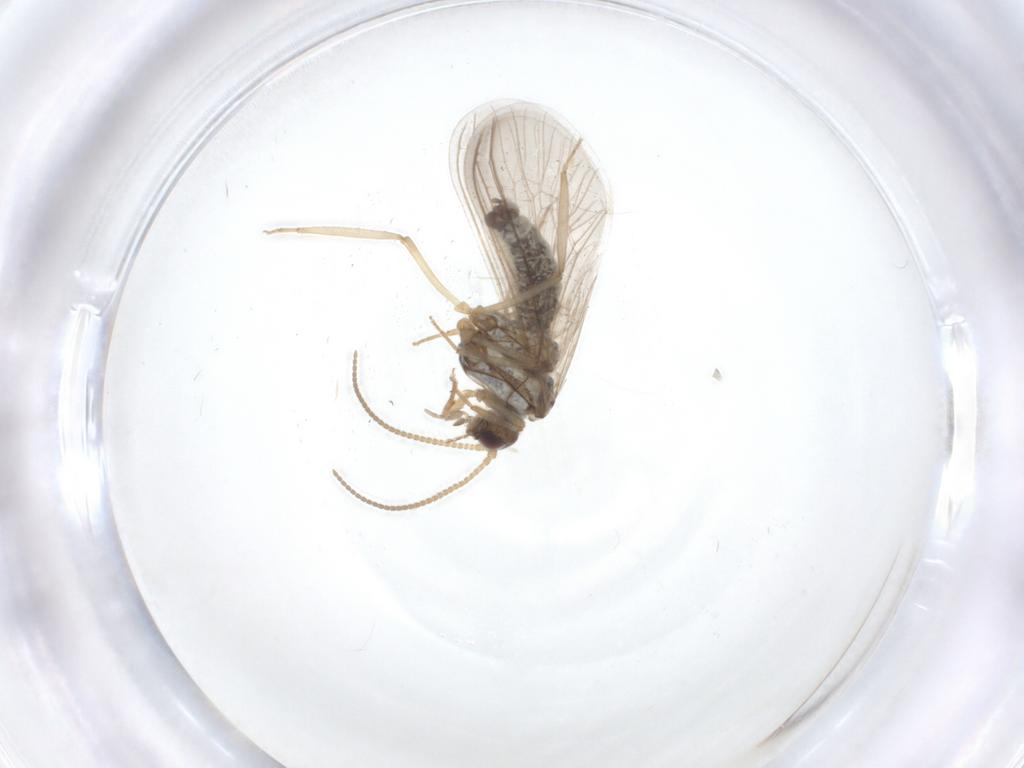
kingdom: Animalia
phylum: Arthropoda
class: Insecta
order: Neuroptera
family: Coniopterygidae
